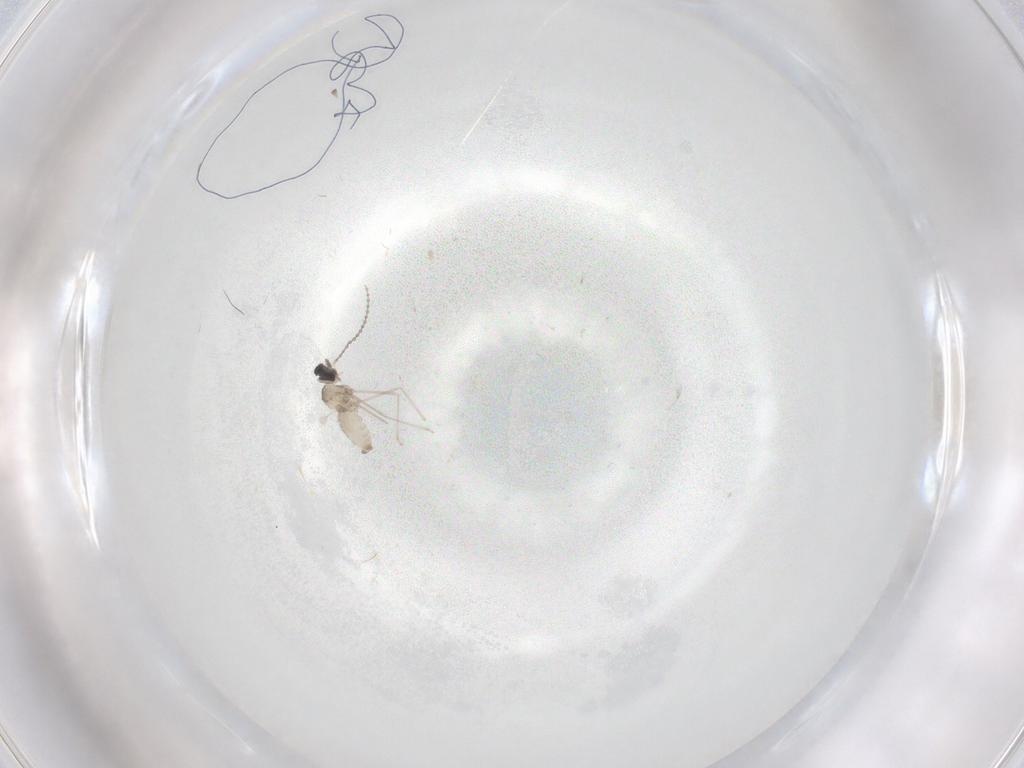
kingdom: Animalia
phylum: Arthropoda
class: Insecta
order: Diptera
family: Cecidomyiidae
